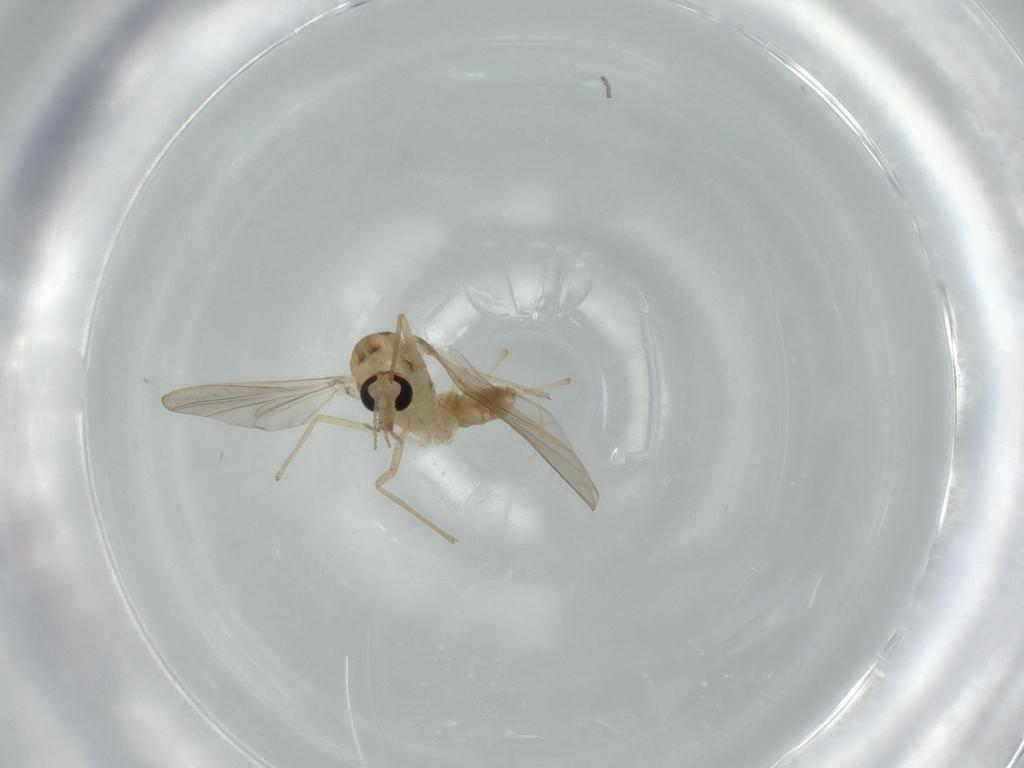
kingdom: Animalia
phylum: Arthropoda
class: Insecta
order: Diptera
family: Chironomidae
